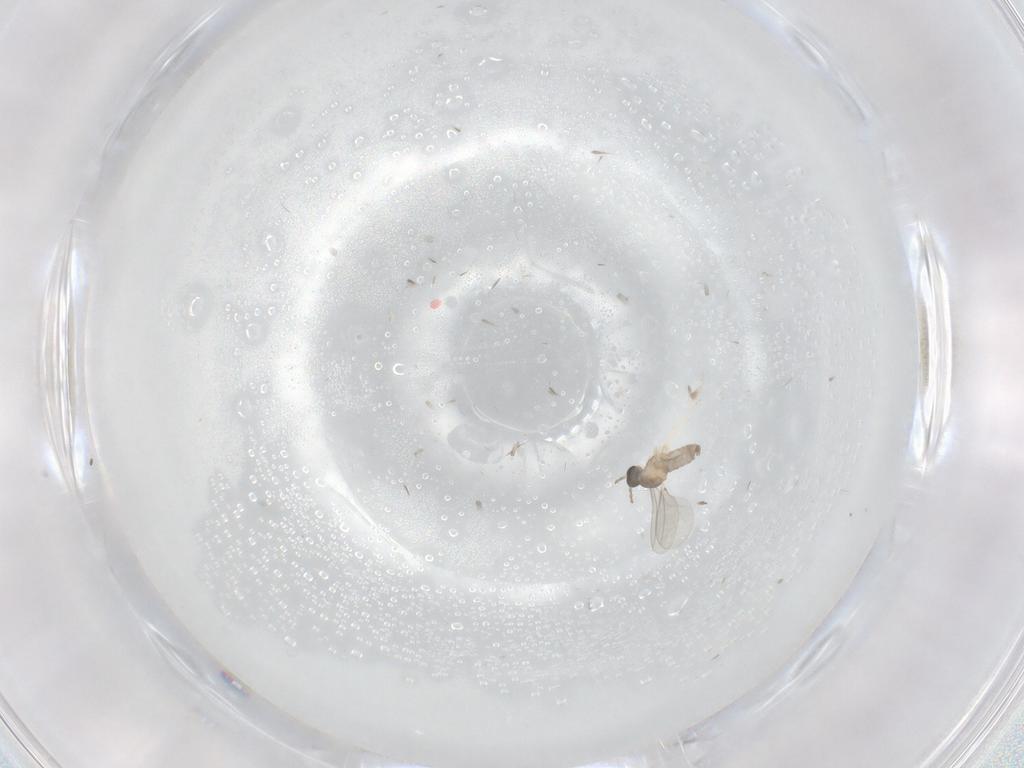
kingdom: Animalia
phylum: Arthropoda
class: Insecta
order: Diptera
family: Cecidomyiidae
